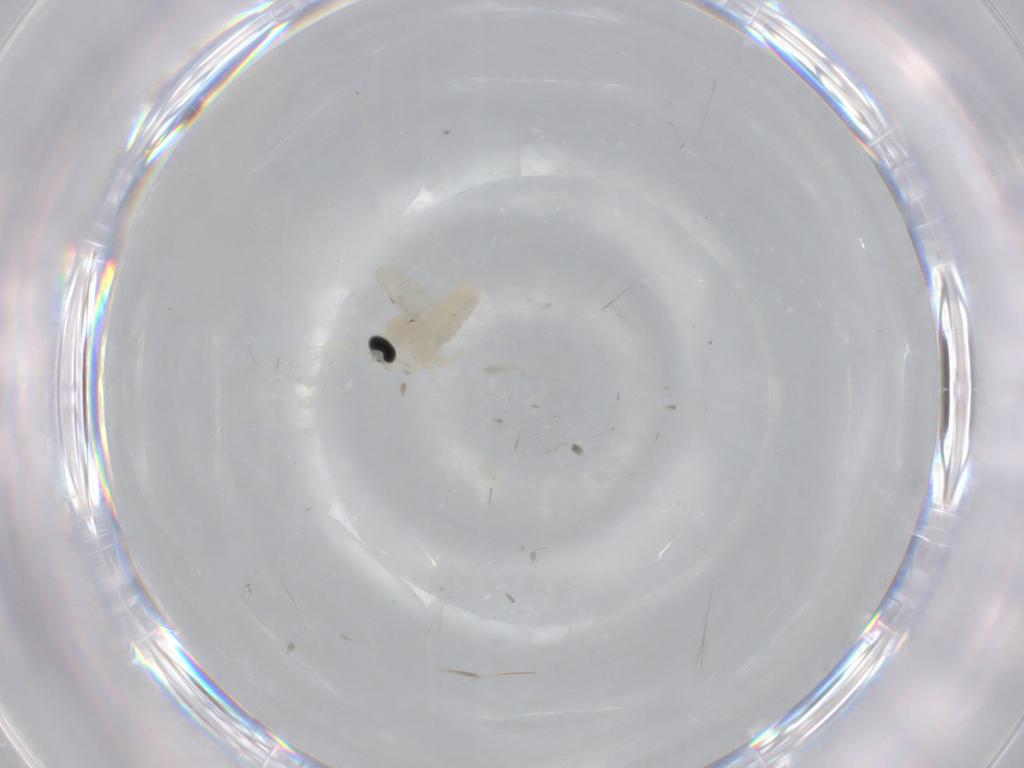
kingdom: Animalia
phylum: Arthropoda
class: Insecta
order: Diptera
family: Cecidomyiidae
